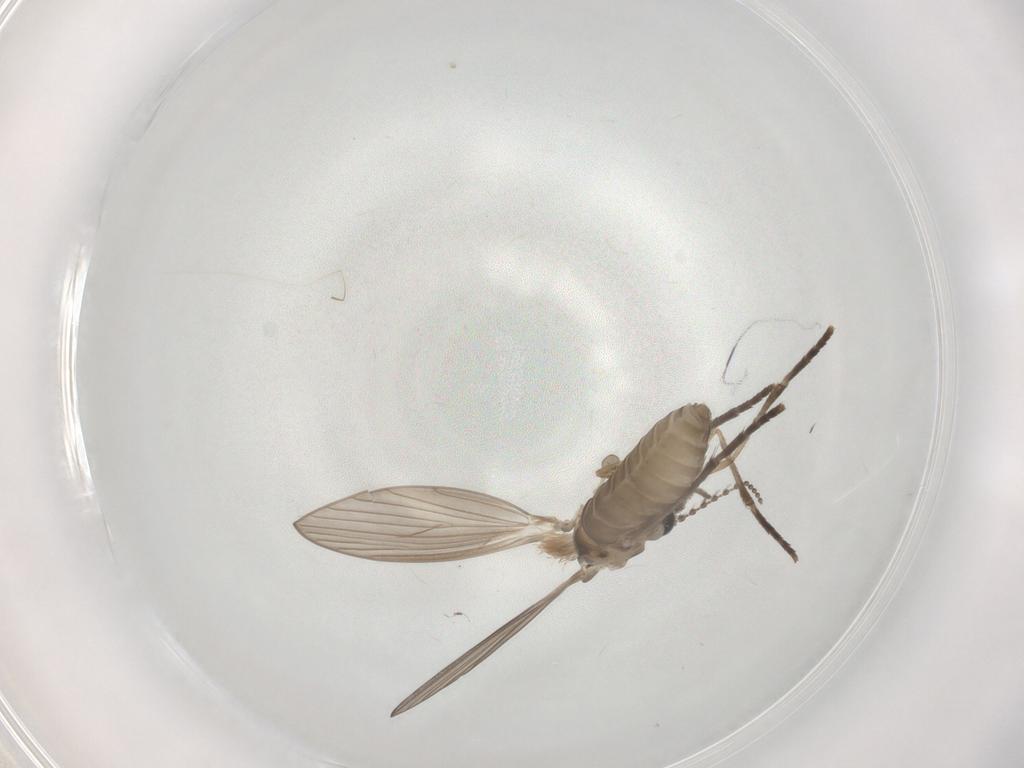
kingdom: Animalia
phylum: Arthropoda
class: Insecta
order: Diptera
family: Psychodidae
